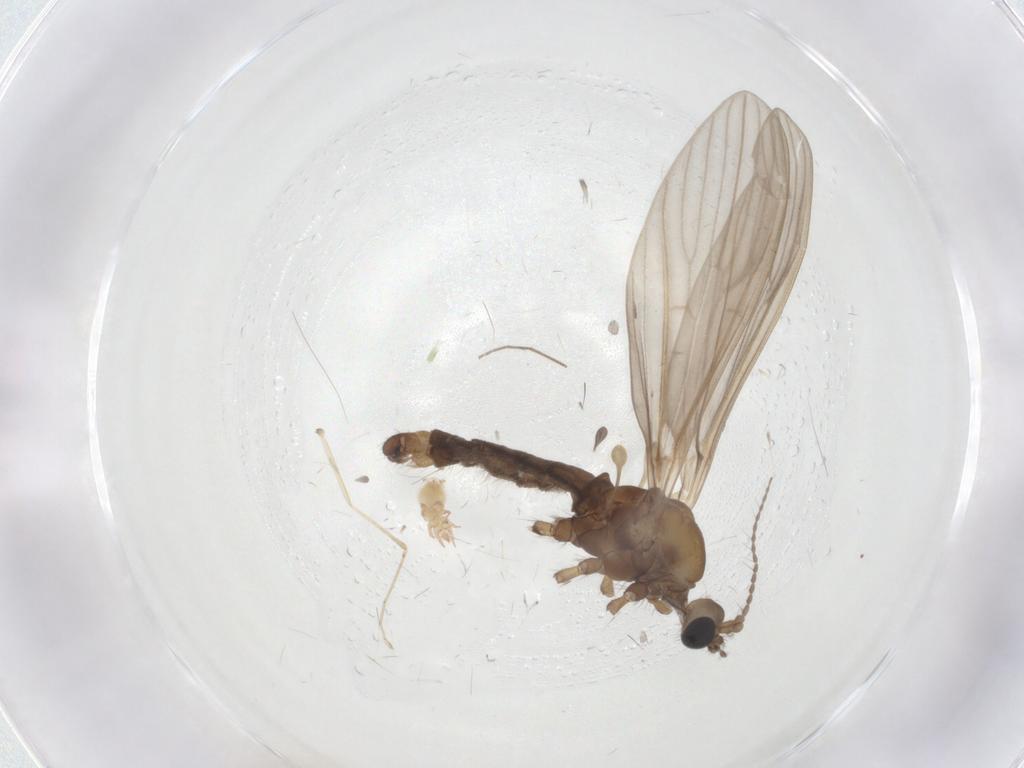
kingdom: Animalia
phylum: Arthropoda
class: Insecta
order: Diptera
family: Limoniidae
